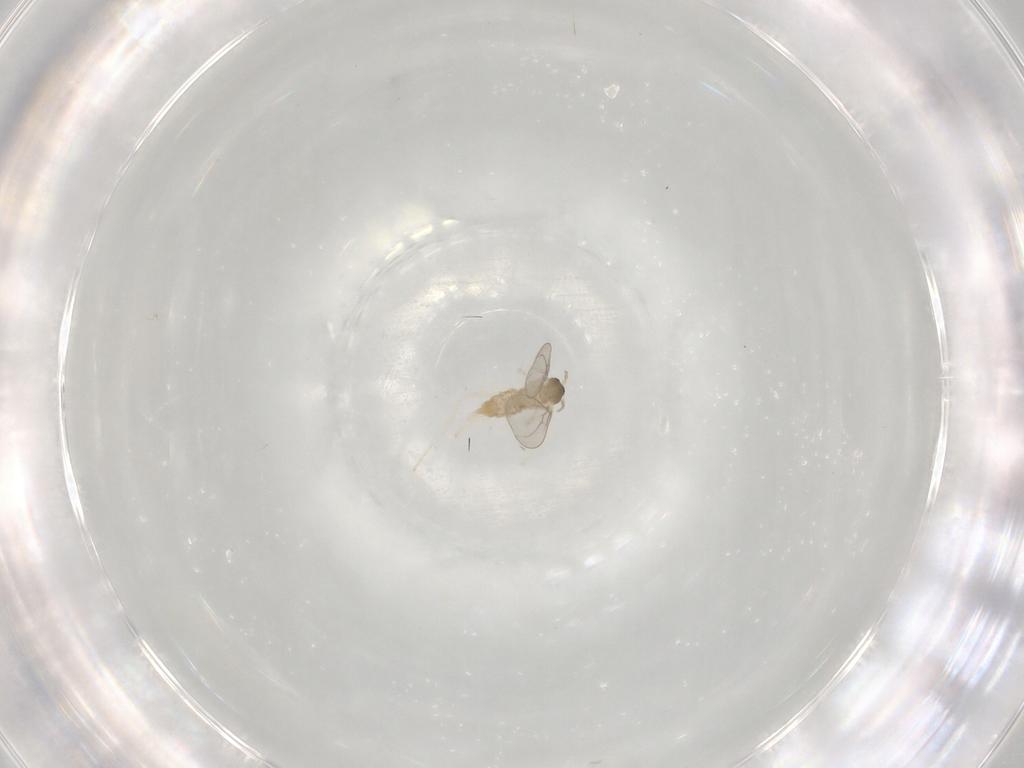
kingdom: Animalia
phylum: Arthropoda
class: Insecta
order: Diptera
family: Cecidomyiidae
